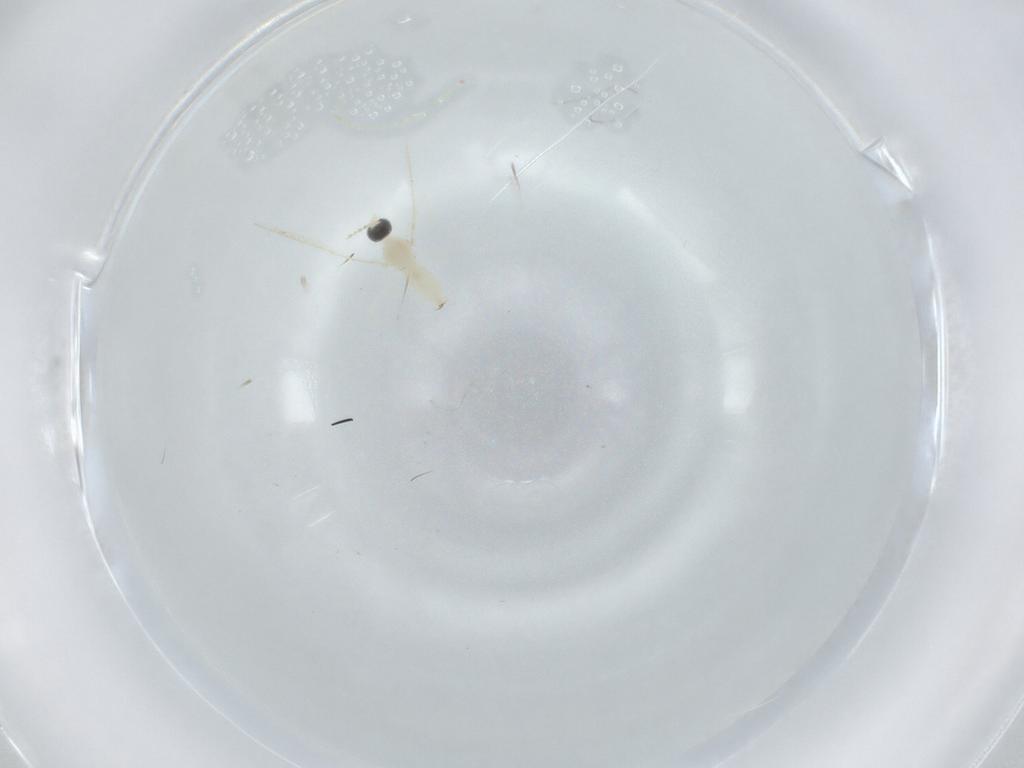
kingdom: Animalia
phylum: Arthropoda
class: Insecta
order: Diptera
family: Cecidomyiidae
